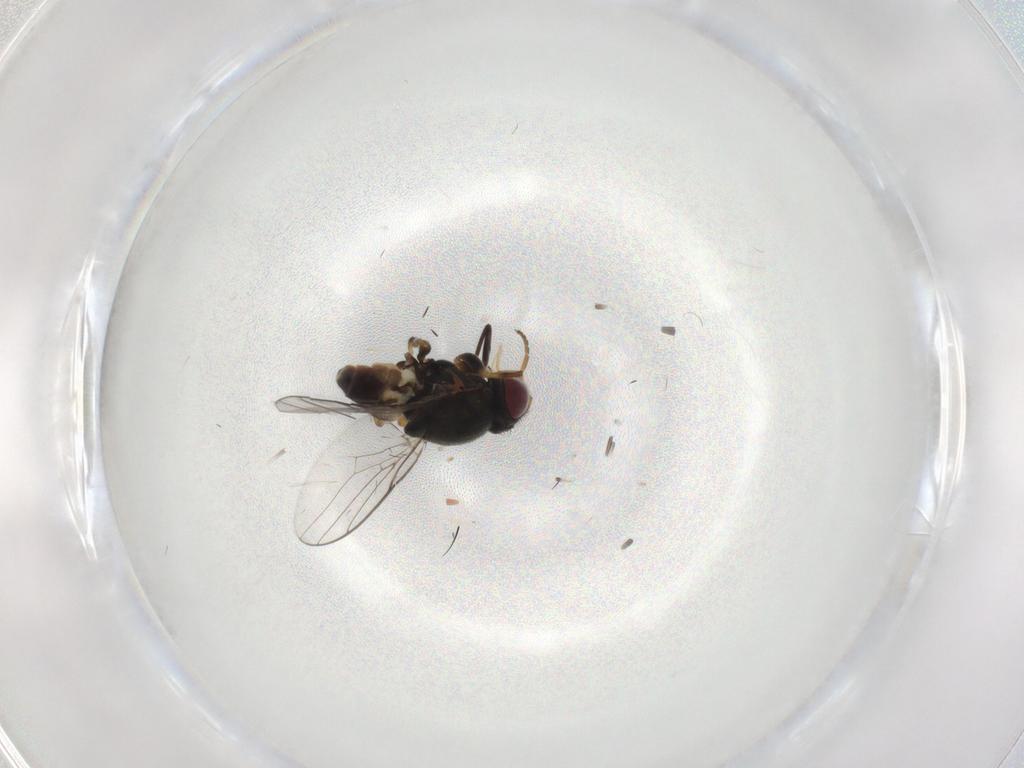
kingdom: Animalia
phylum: Arthropoda
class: Insecta
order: Diptera
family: Chloropidae
